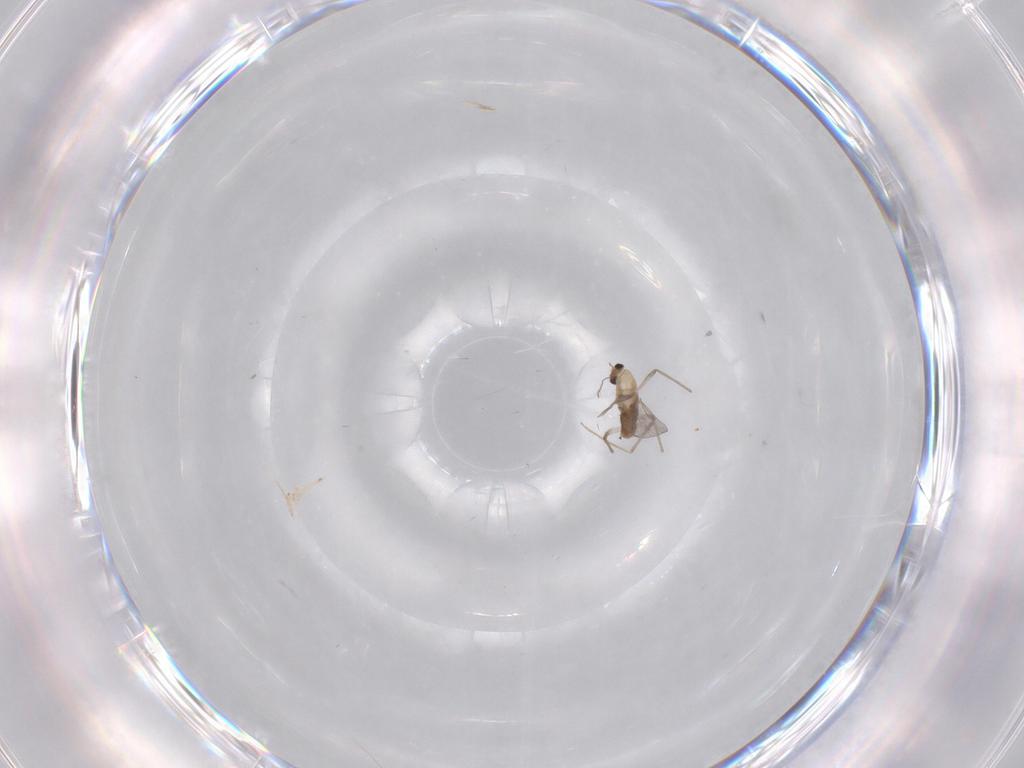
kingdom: Animalia
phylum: Arthropoda
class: Insecta
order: Diptera
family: Chironomidae
